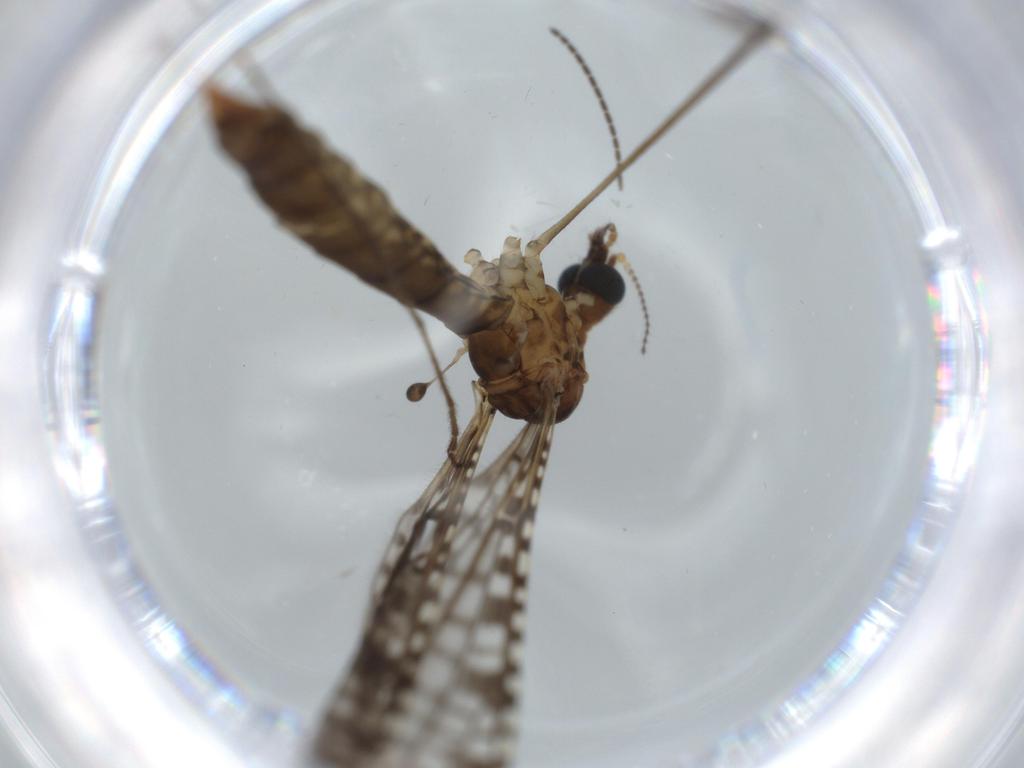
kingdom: Animalia
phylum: Arthropoda
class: Insecta
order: Diptera
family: Sciaridae
